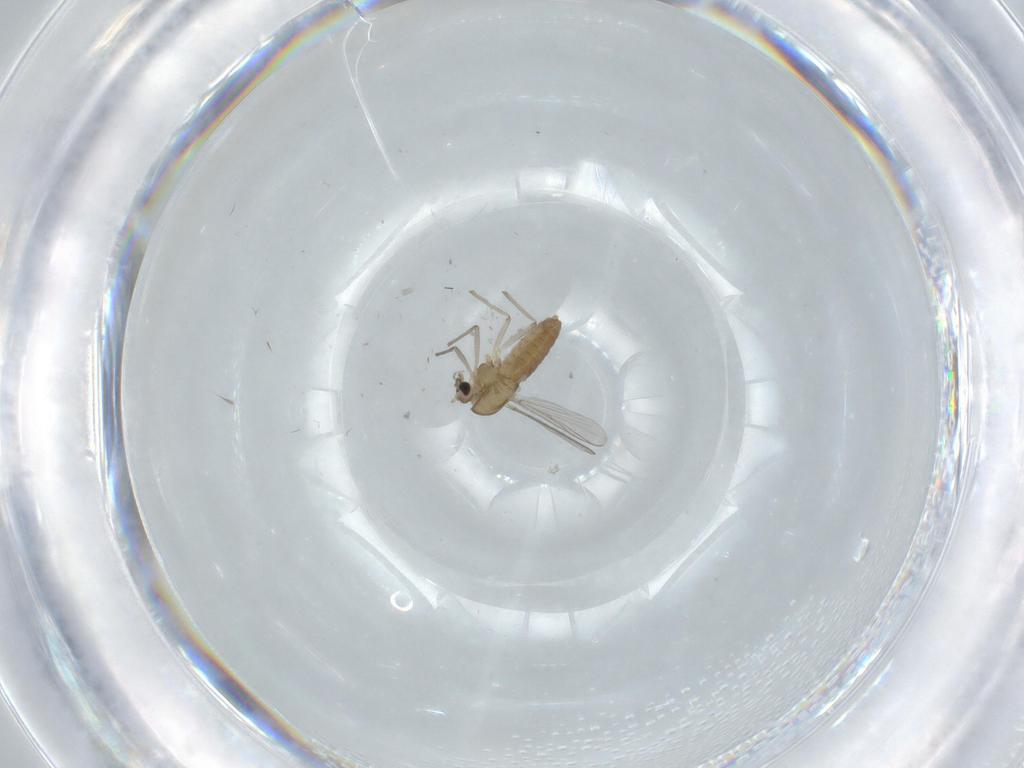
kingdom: Animalia
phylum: Arthropoda
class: Insecta
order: Diptera
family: Chironomidae
